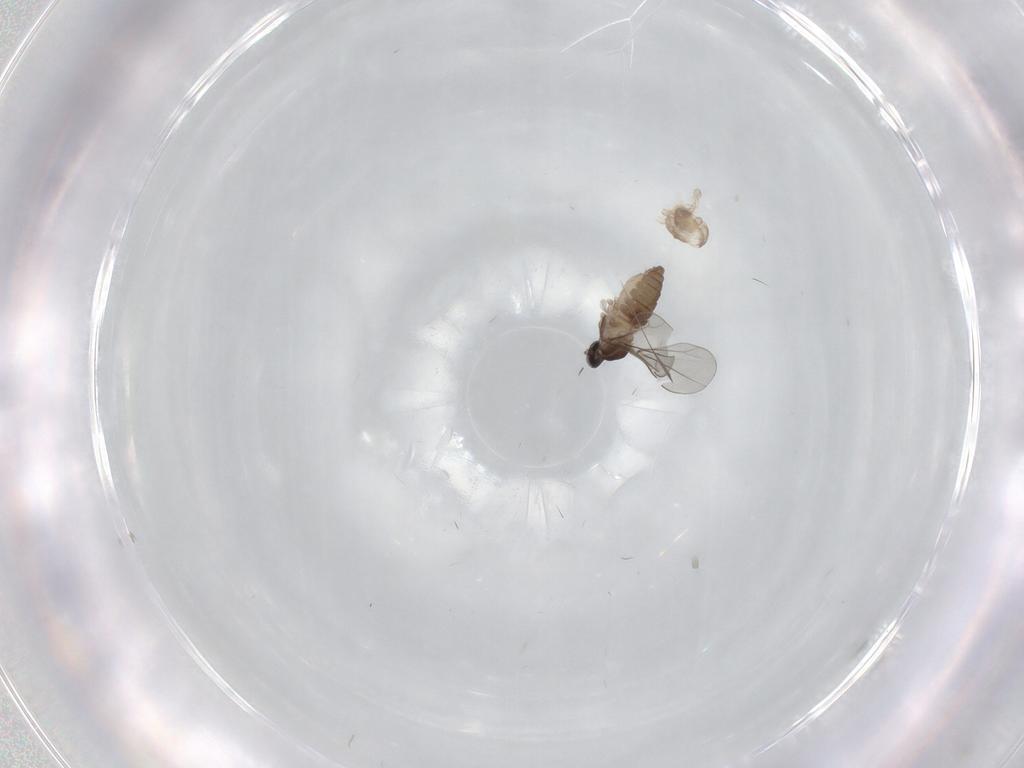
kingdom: Animalia
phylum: Arthropoda
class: Insecta
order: Diptera
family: Cecidomyiidae
